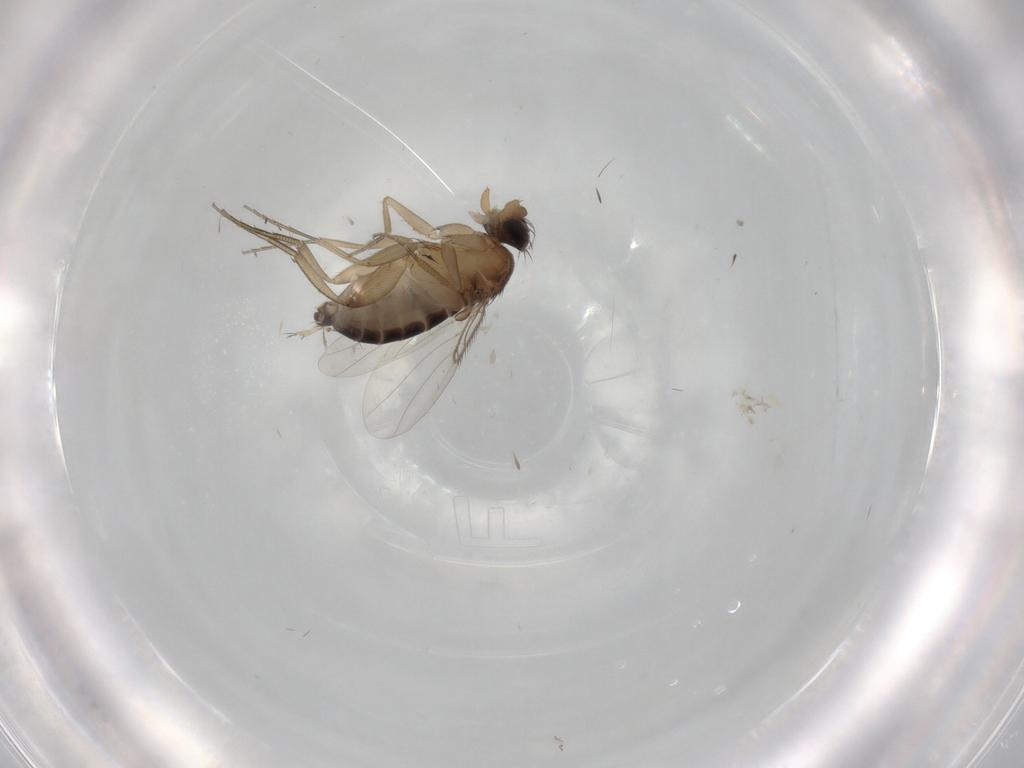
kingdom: Animalia
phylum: Arthropoda
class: Insecta
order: Diptera
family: Phoridae
